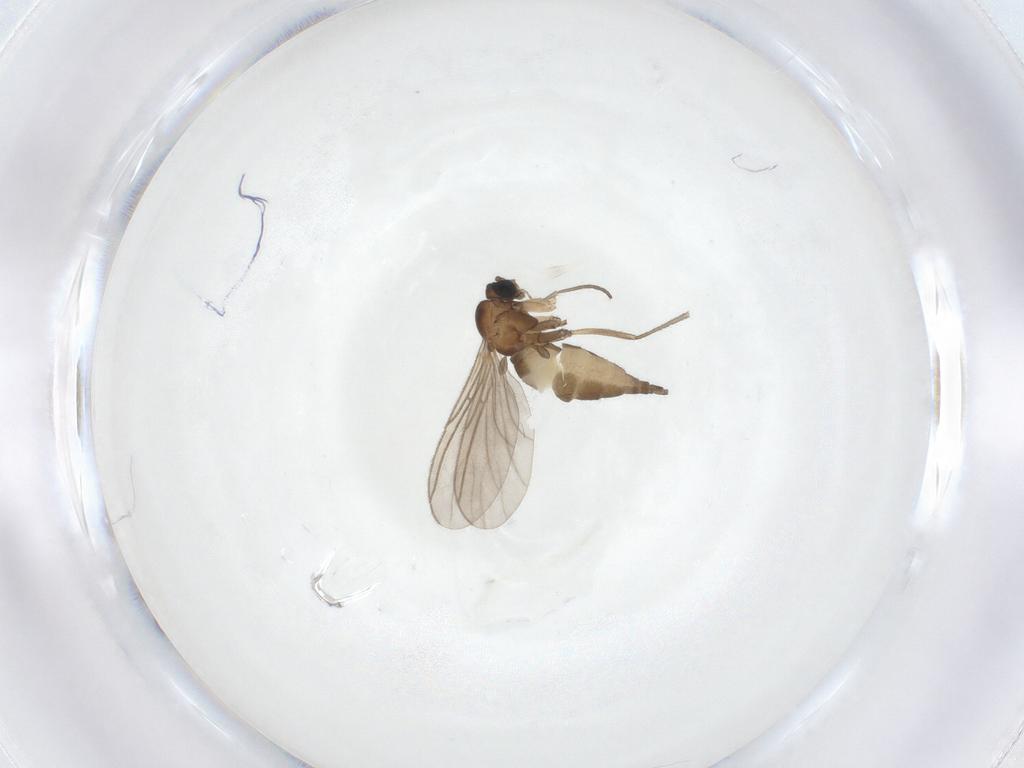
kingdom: Animalia
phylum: Arthropoda
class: Insecta
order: Diptera
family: Sciaridae
